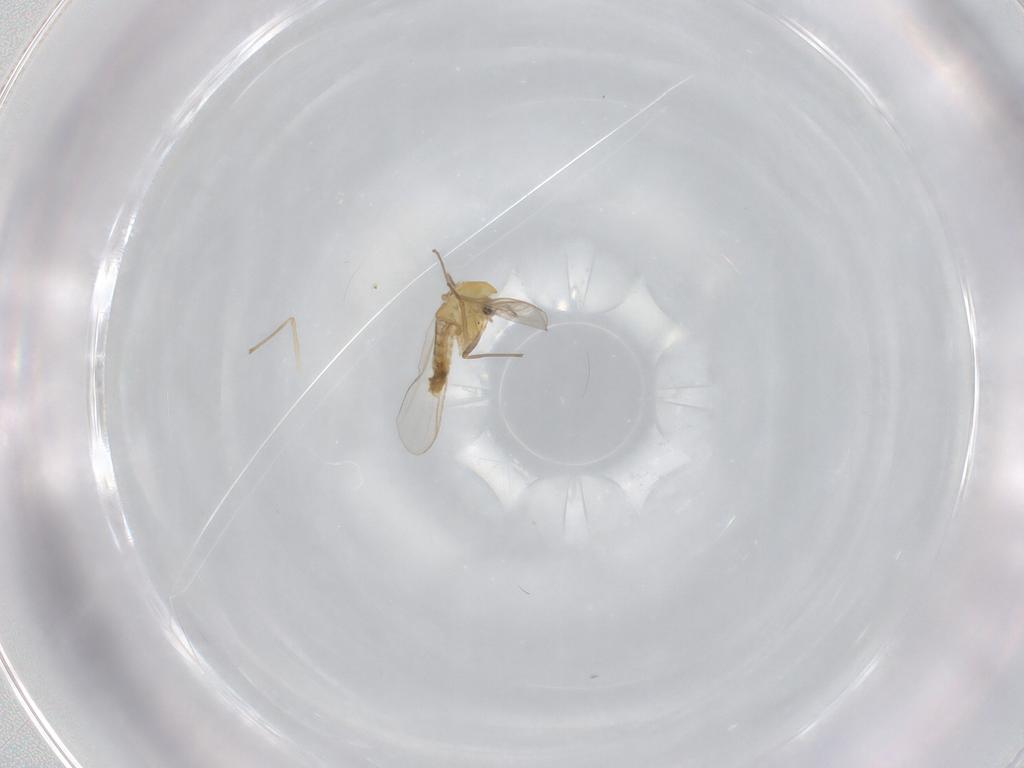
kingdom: Animalia
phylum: Arthropoda
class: Insecta
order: Diptera
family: Chironomidae
